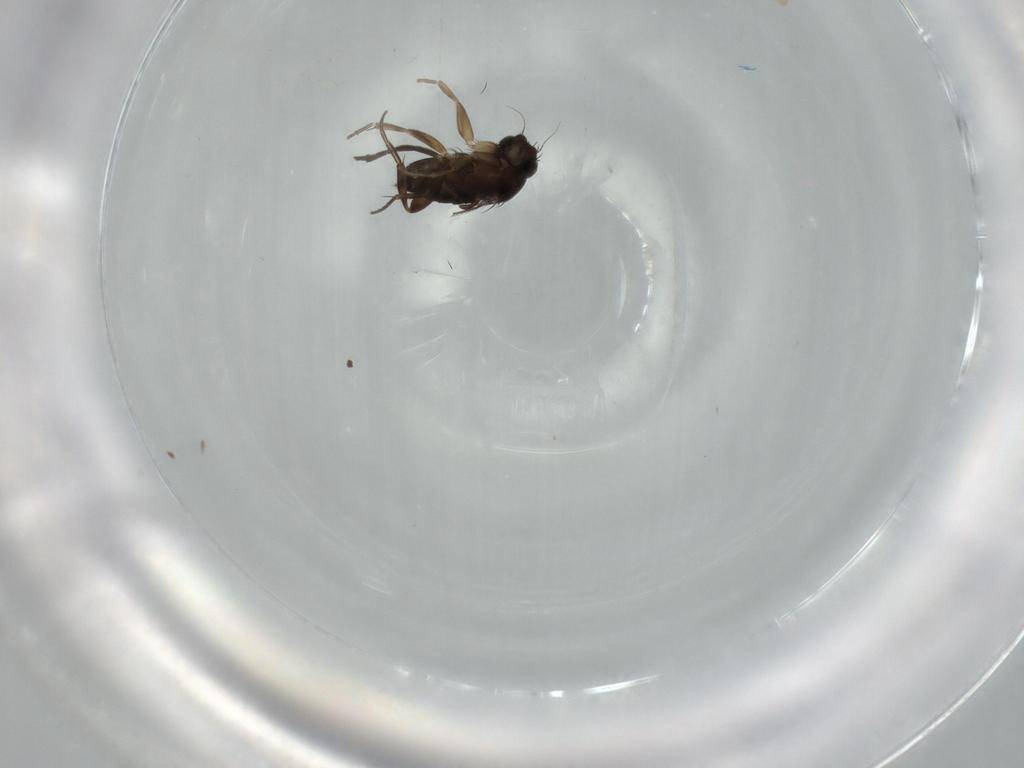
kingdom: Animalia
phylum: Arthropoda
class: Insecta
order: Diptera
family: Phoridae
